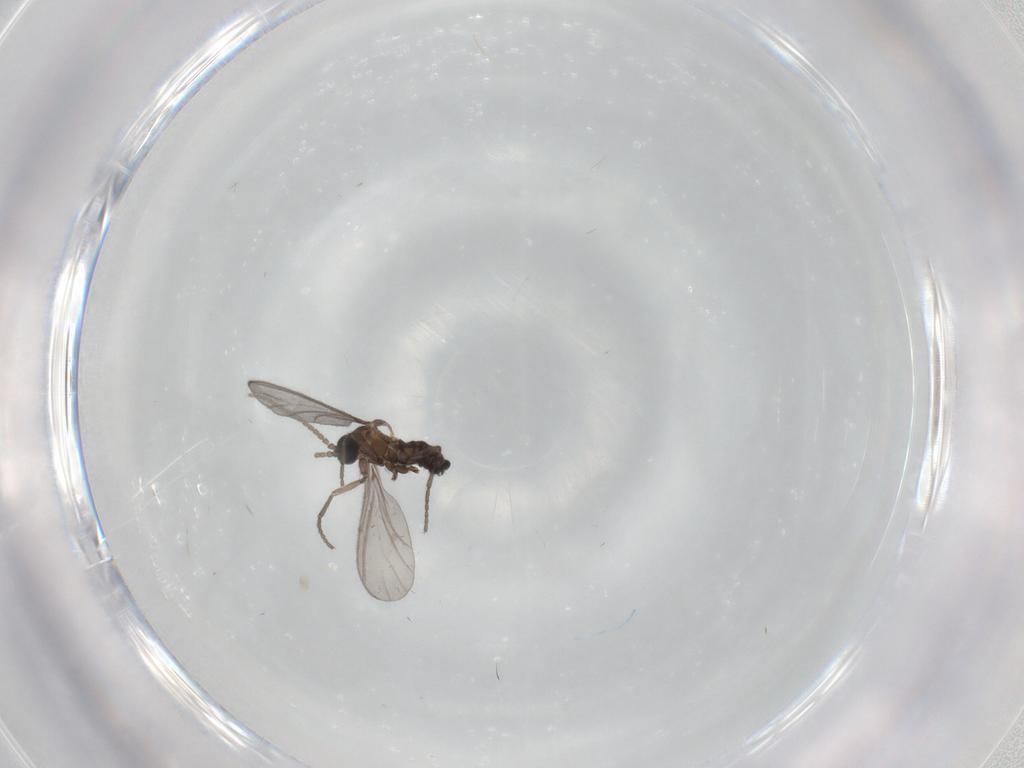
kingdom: Animalia
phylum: Arthropoda
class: Insecta
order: Diptera
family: Sciaridae
